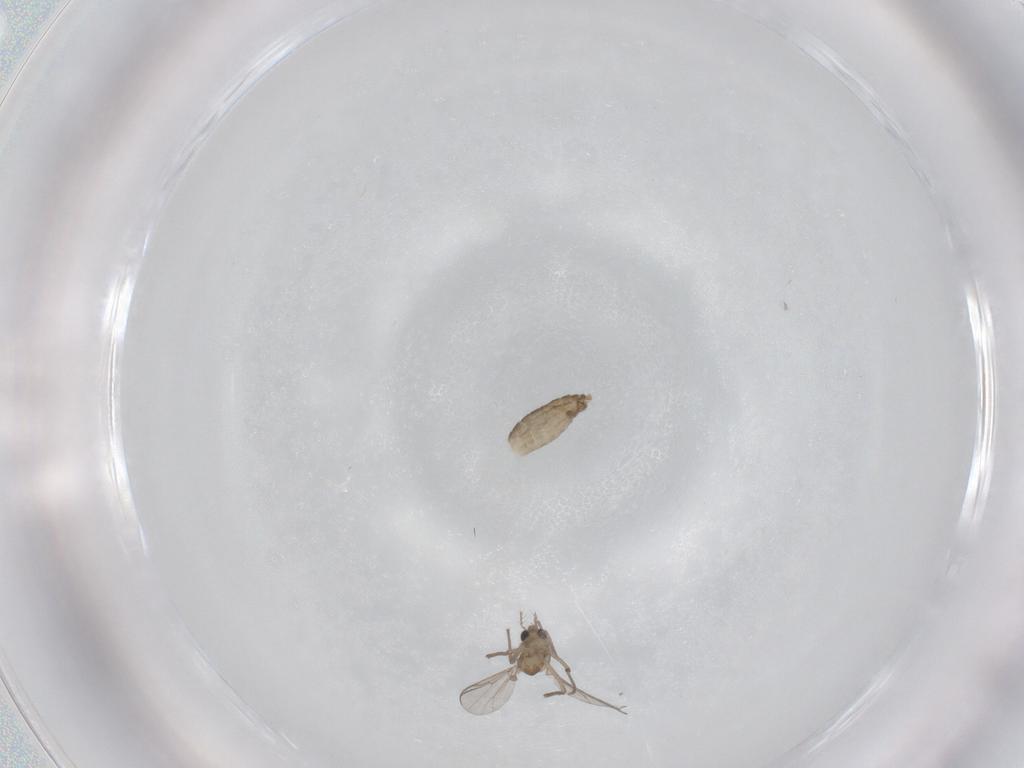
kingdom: Animalia
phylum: Arthropoda
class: Insecta
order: Diptera
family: Chironomidae
